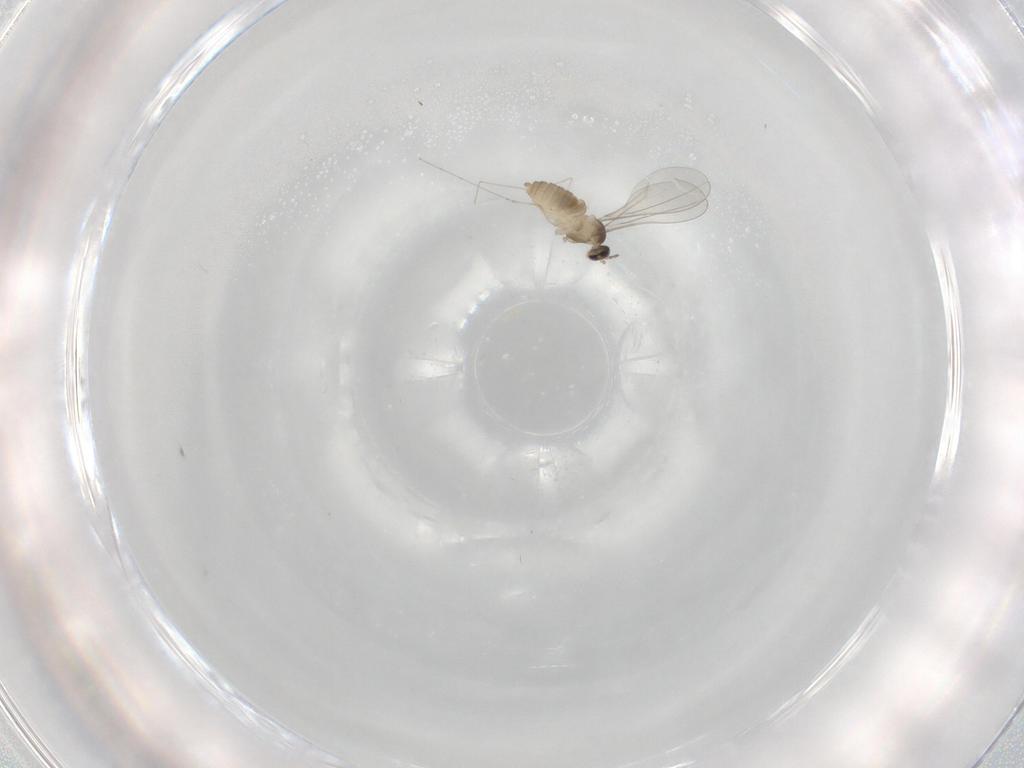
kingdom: Animalia
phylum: Arthropoda
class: Insecta
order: Diptera
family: Cecidomyiidae
